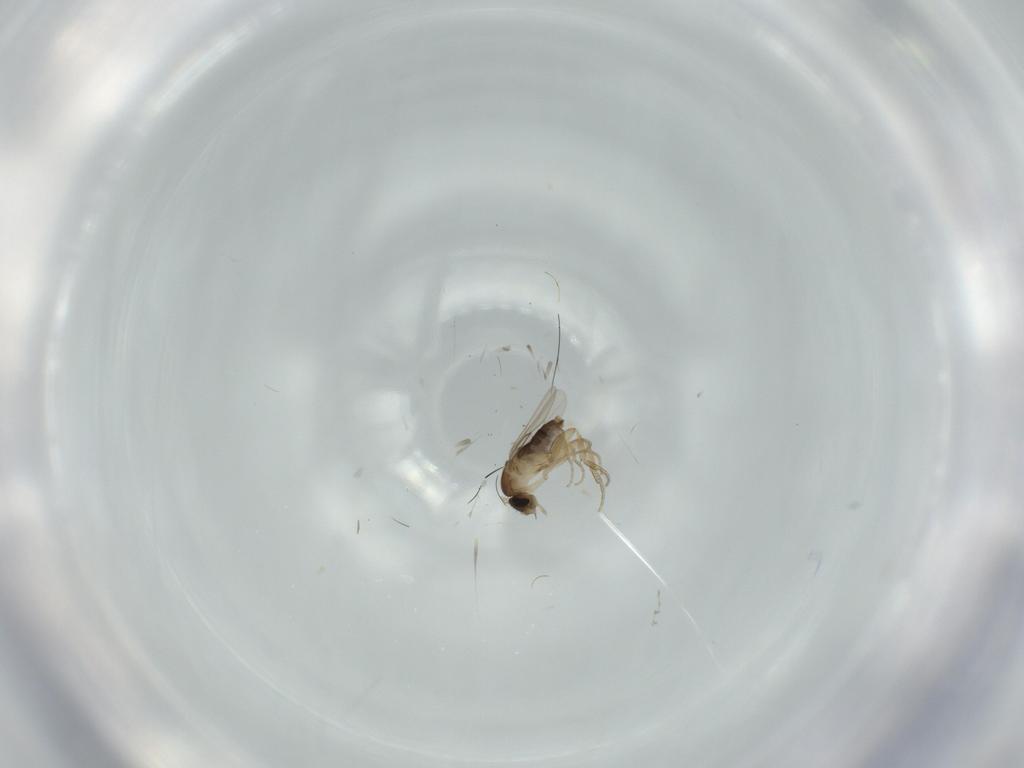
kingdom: Animalia
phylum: Arthropoda
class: Insecta
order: Diptera
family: Phoridae
